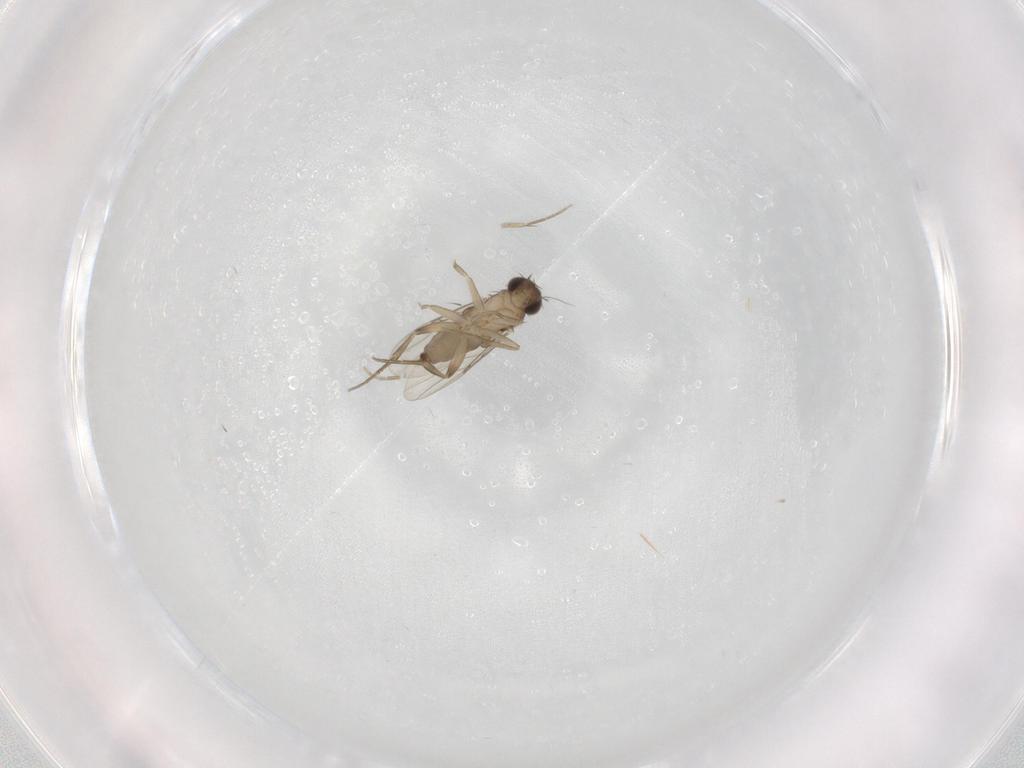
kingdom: Animalia
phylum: Arthropoda
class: Insecta
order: Diptera
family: Phoridae
